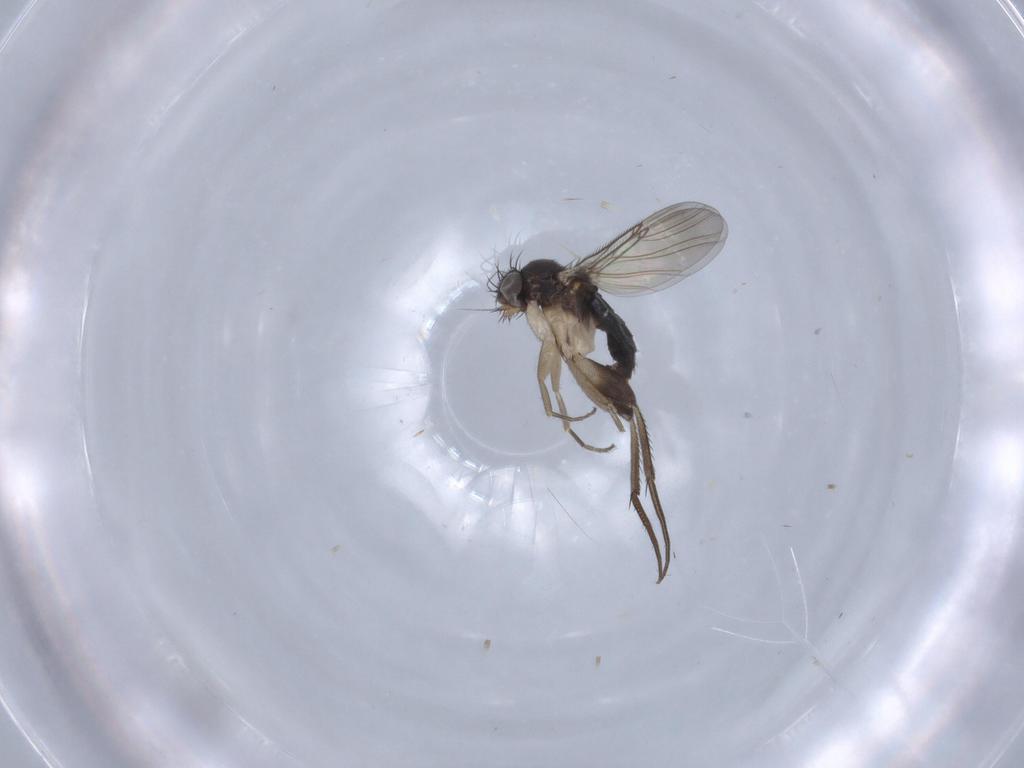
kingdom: Animalia
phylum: Arthropoda
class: Insecta
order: Diptera
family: Phoridae
